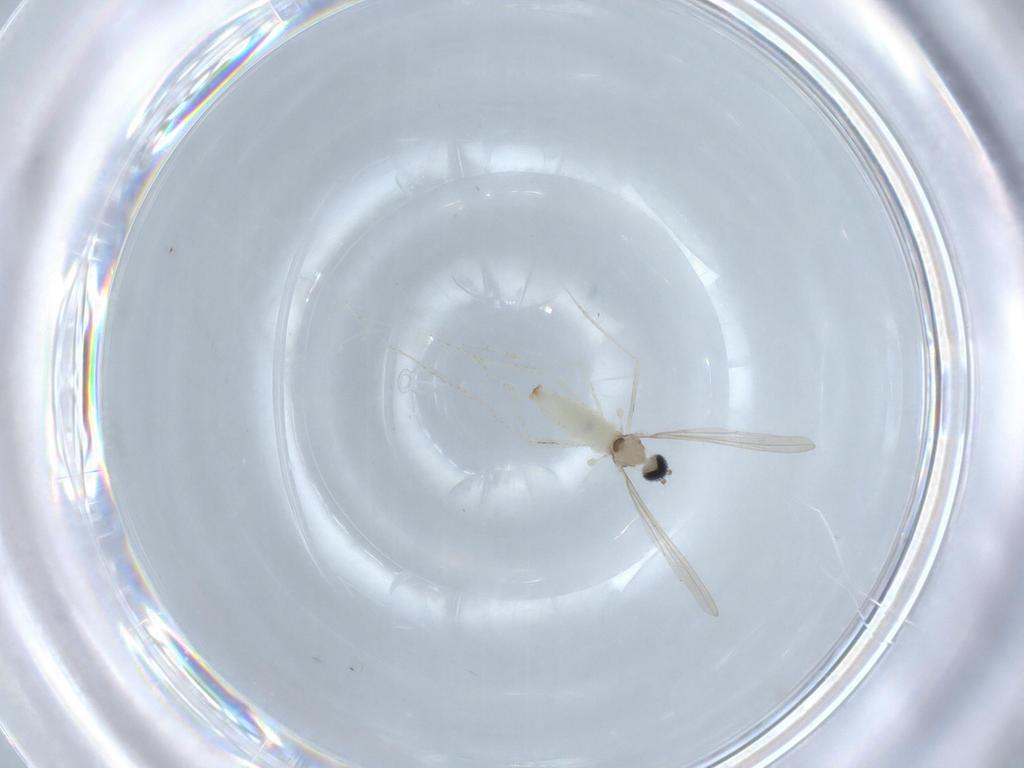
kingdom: Animalia
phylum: Arthropoda
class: Insecta
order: Diptera
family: Cecidomyiidae
